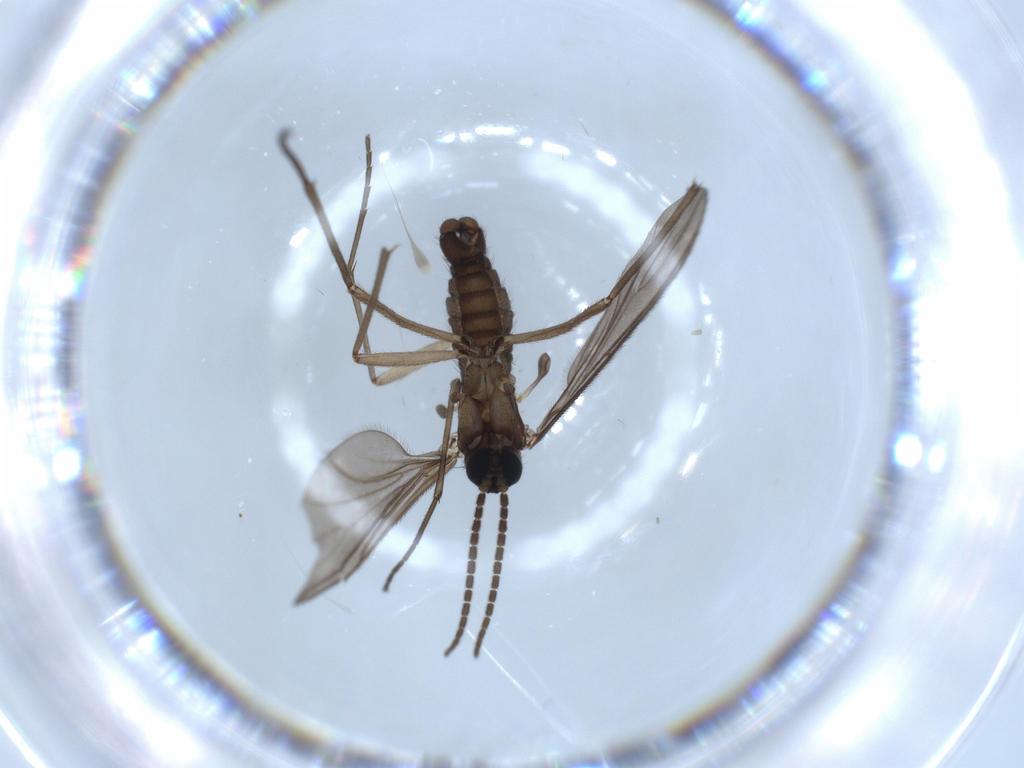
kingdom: Animalia
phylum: Arthropoda
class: Insecta
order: Diptera
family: Sciaridae
